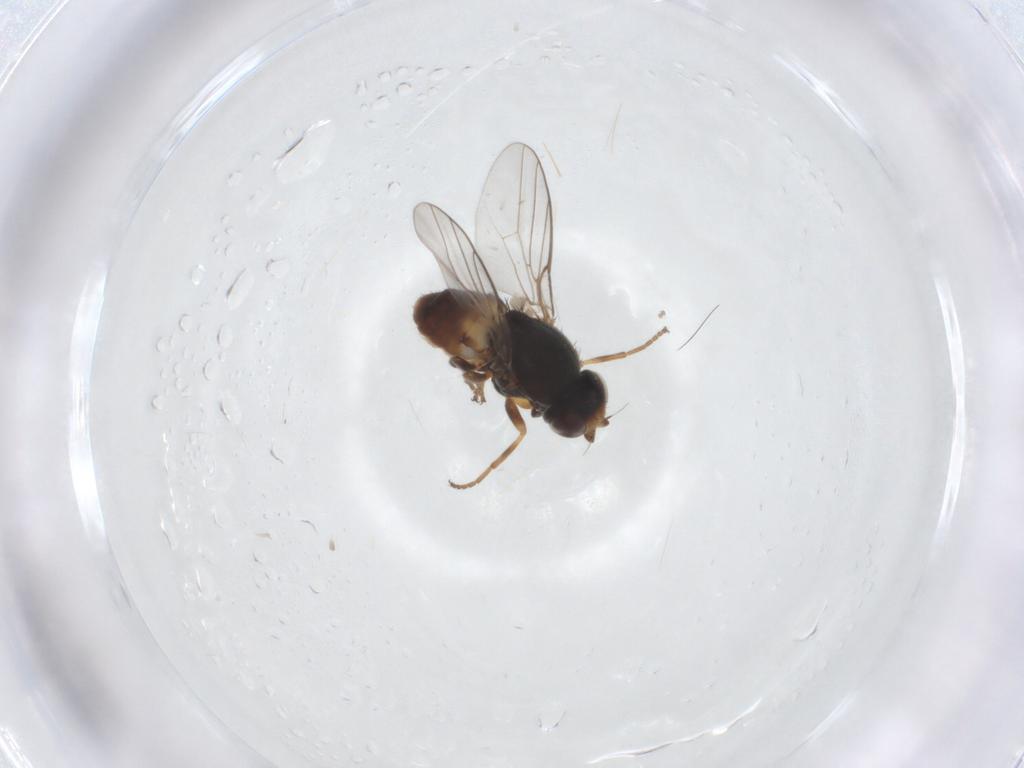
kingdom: Animalia
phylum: Arthropoda
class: Insecta
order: Diptera
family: Chloropidae
